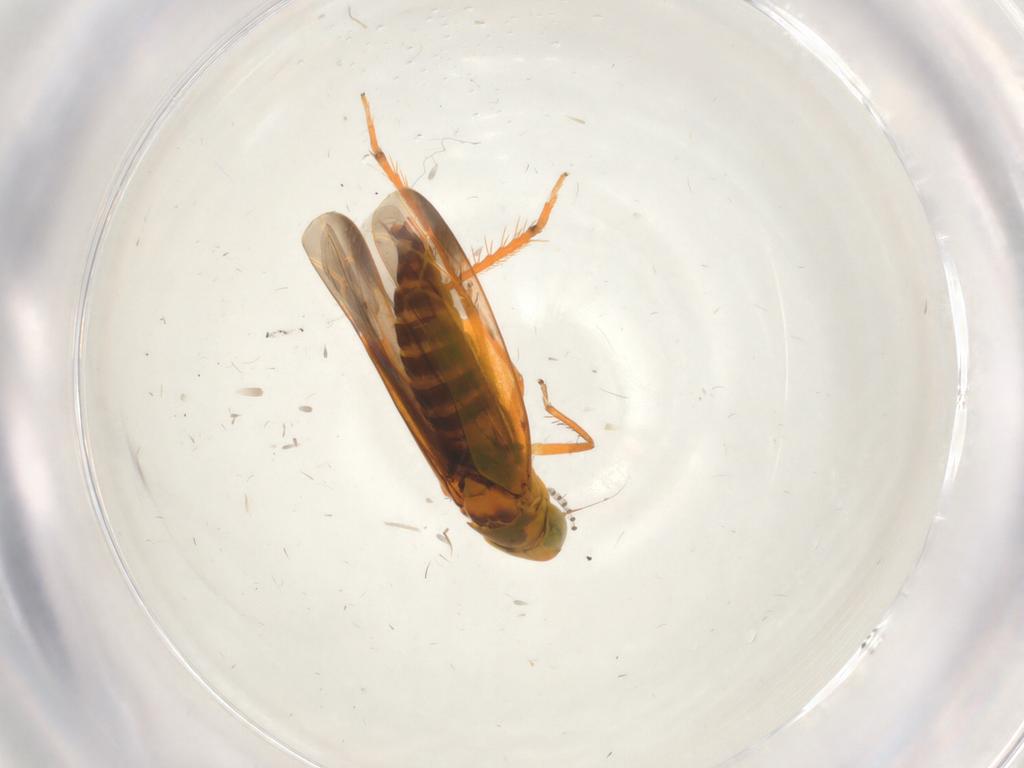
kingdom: Animalia
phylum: Arthropoda
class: Insecta
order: Hemiptera
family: Cicadellidae
